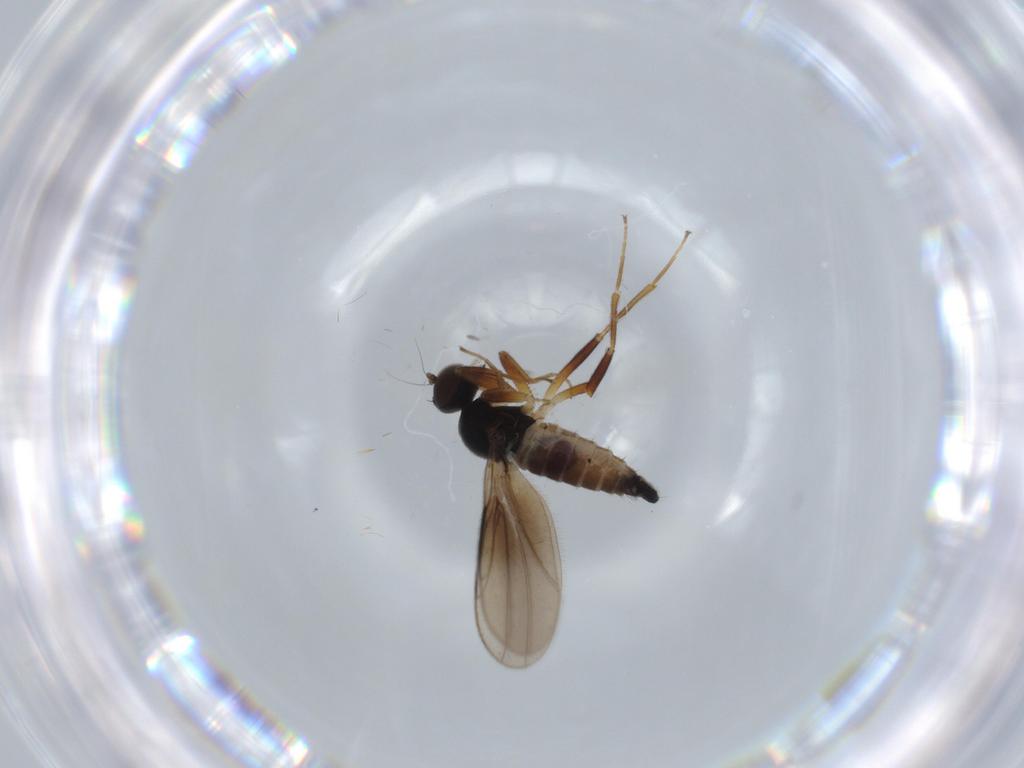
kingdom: Animalia
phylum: Arthropoda
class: Insecta
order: Diptera
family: Hybotidae
